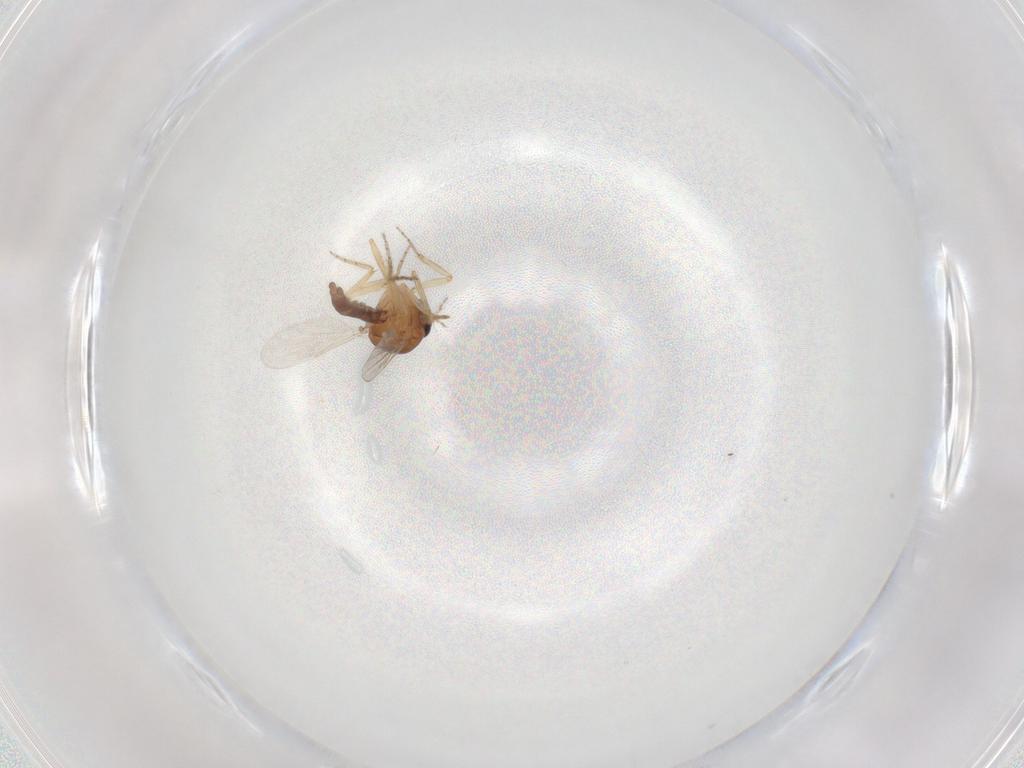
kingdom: Animalia
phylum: Arthropoda
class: Insecta
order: Diptera
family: Ceratopogonidae
